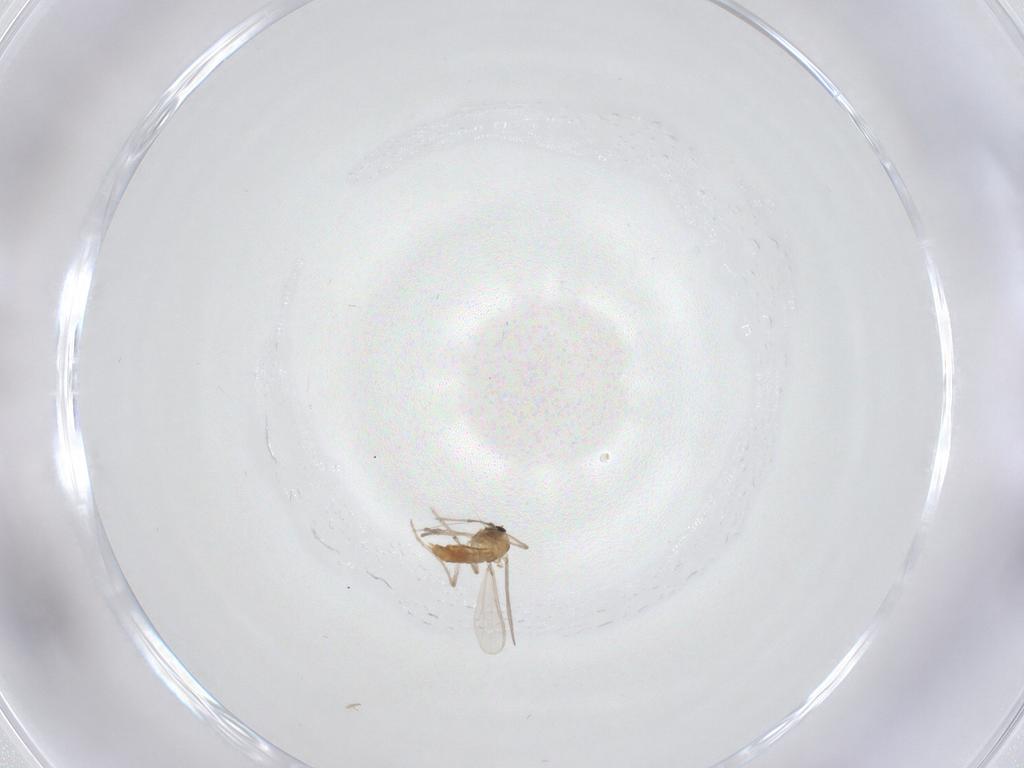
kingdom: Animalia
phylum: Arthropoda
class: Insecta
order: Diptera
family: Chironomidae
